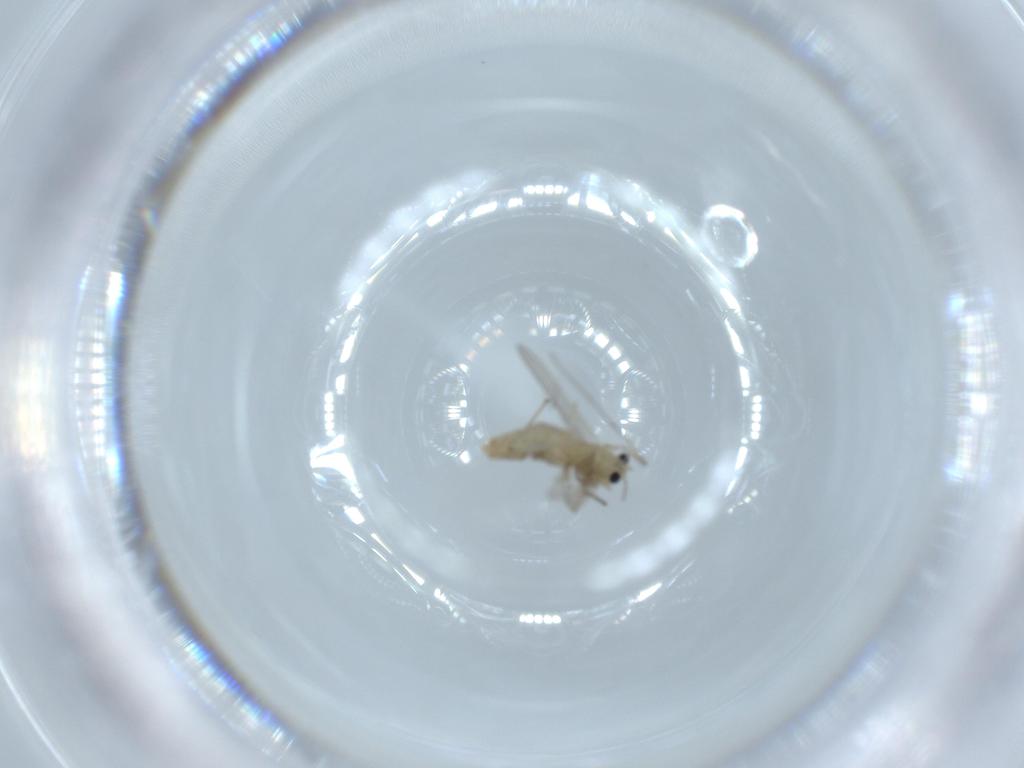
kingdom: Animalia
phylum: Arthropoda
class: Insecta
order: Diptera
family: Chironomidae
